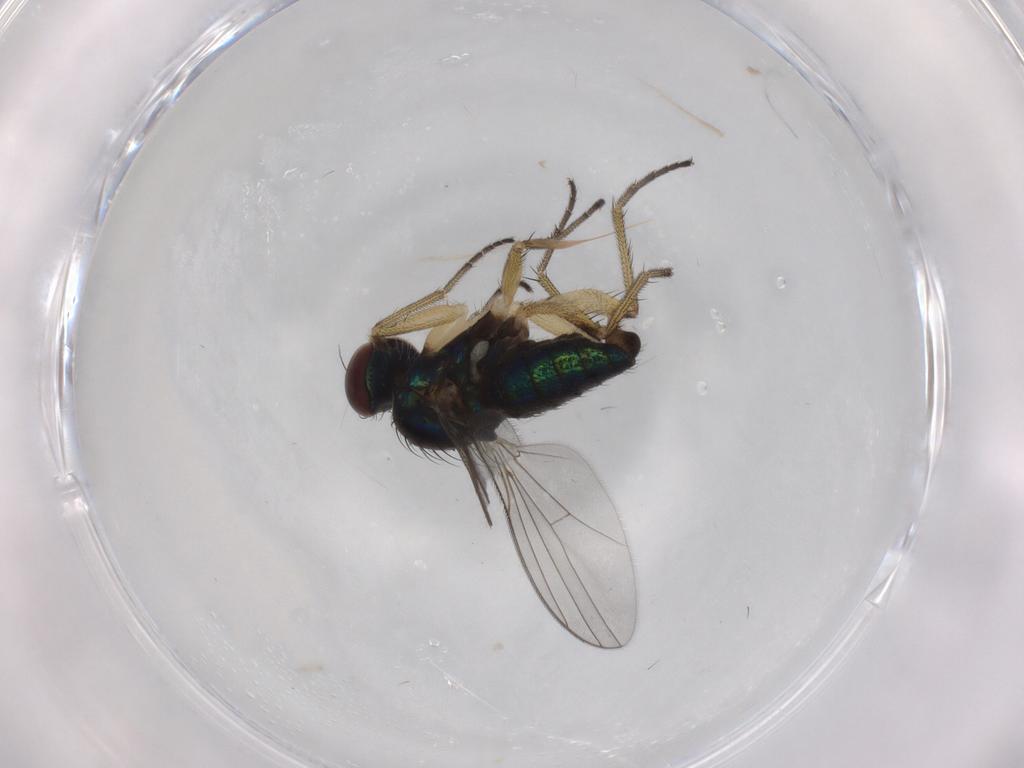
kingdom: Animalia
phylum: Arthropoda
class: Insecta
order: Diptera
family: Dolichopodidae
